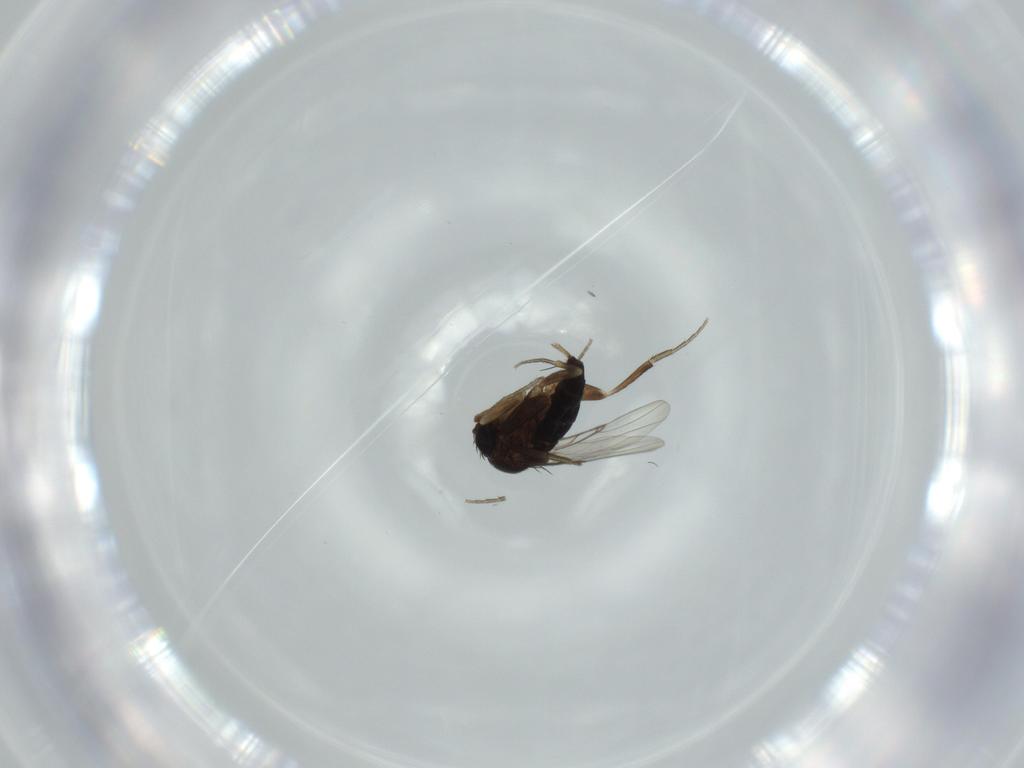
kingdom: Animalia
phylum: Arthropoda
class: Insecta
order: Diptera
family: Phoridae
